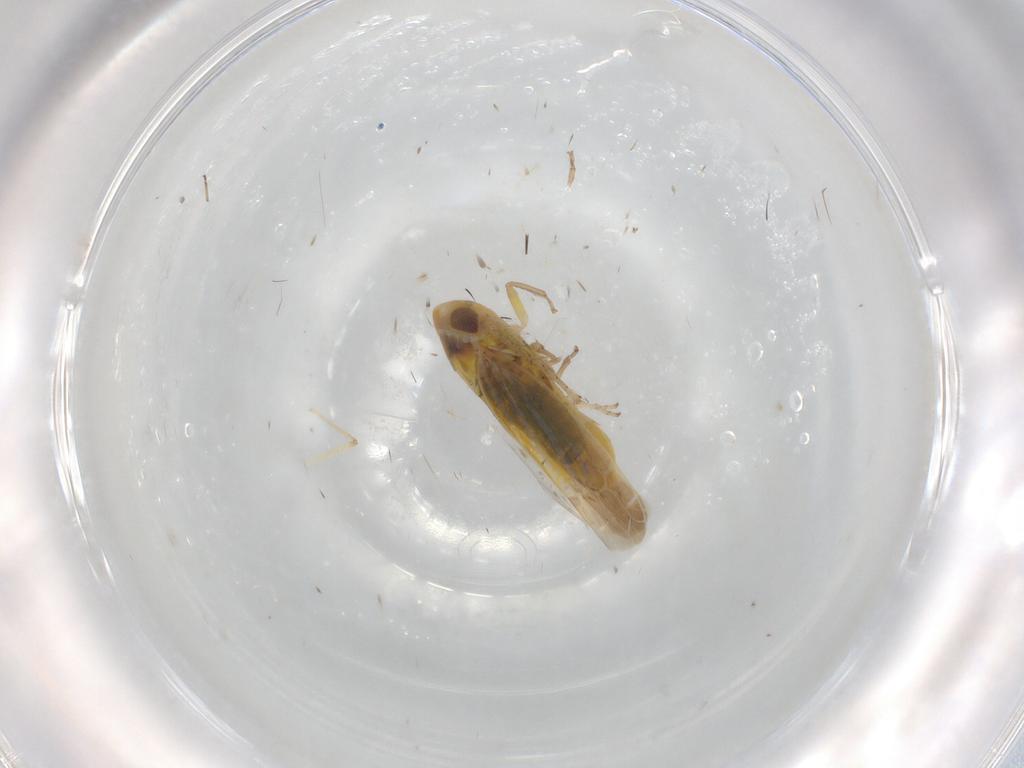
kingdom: Animalia
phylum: Arthropoda
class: Insecta
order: Hemiptera
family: Cicadellidae
